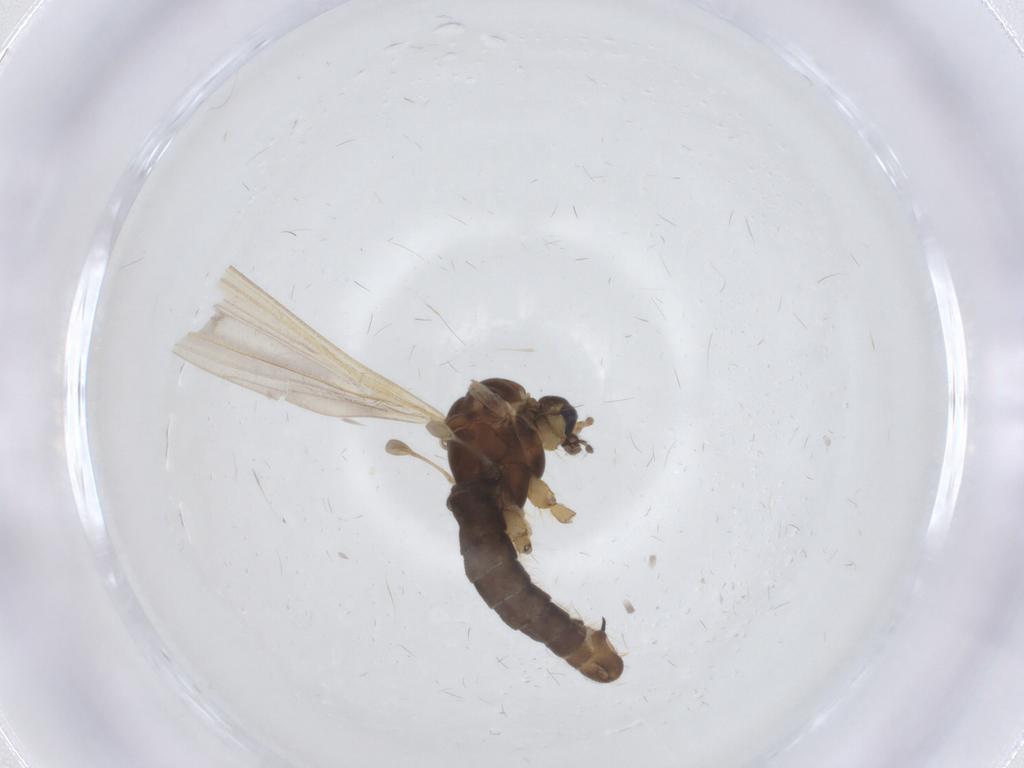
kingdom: Animalia
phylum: Arthropoda
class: Insecta
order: Diptera
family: Limoniidae
